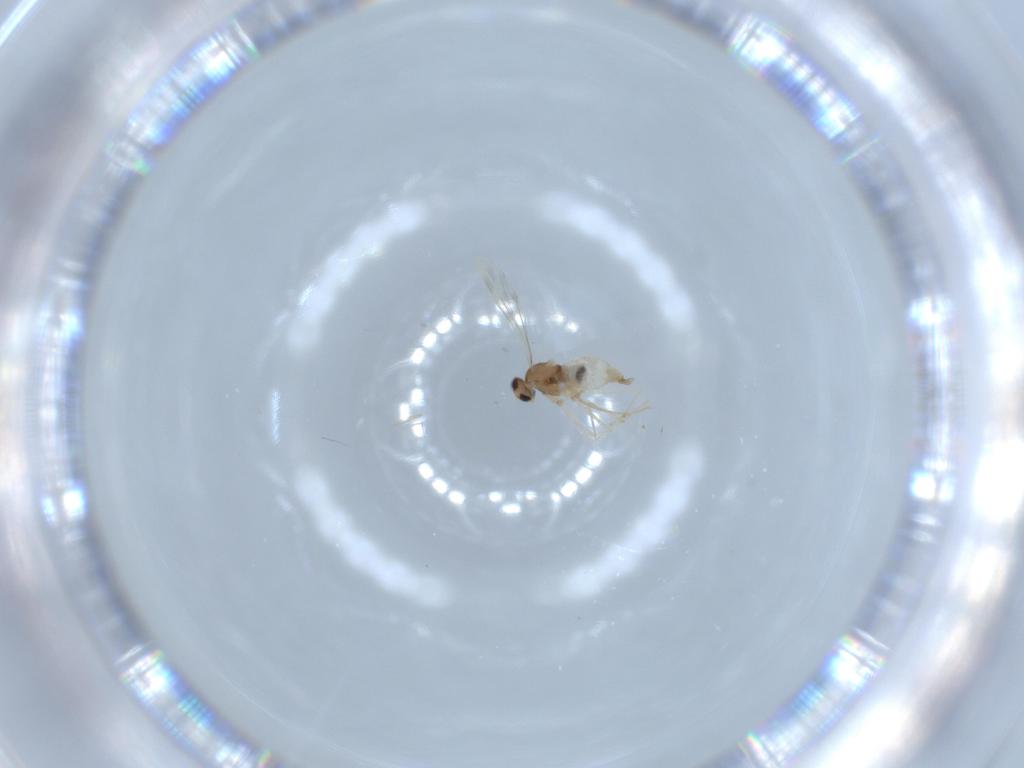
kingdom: Animalia
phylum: Arthropoda
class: Insecta
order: Diptera
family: Cecidomyiidae
